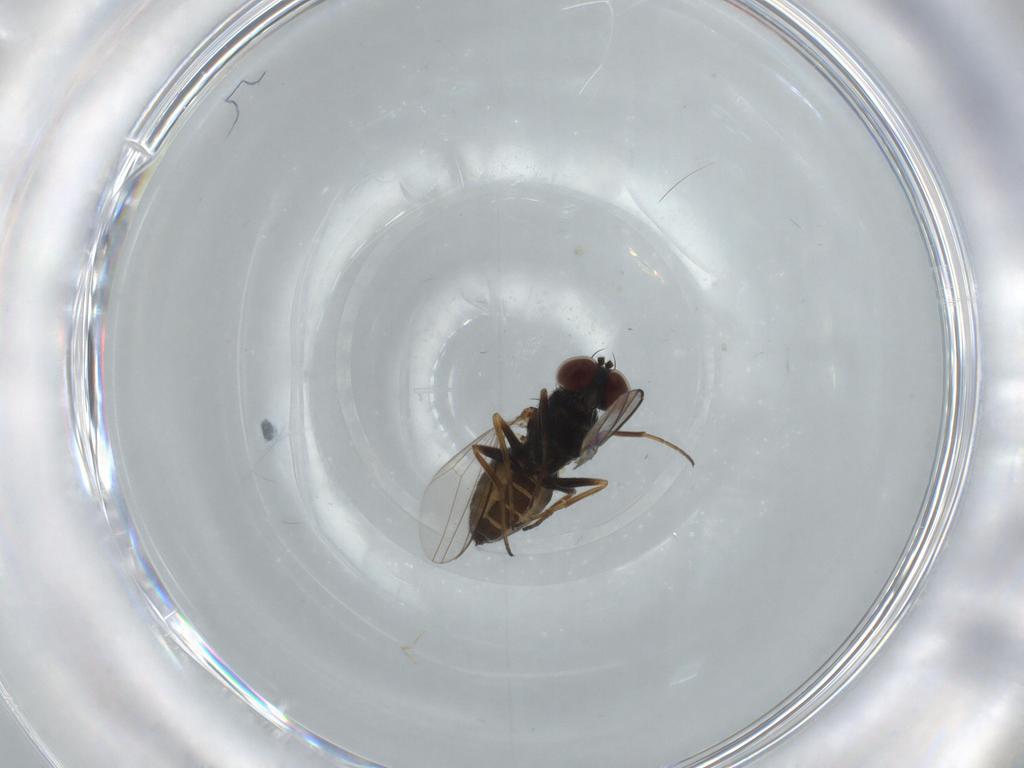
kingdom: Animalia
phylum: Arthropoda
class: Insecta
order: Diptera
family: Dolichopodidae
